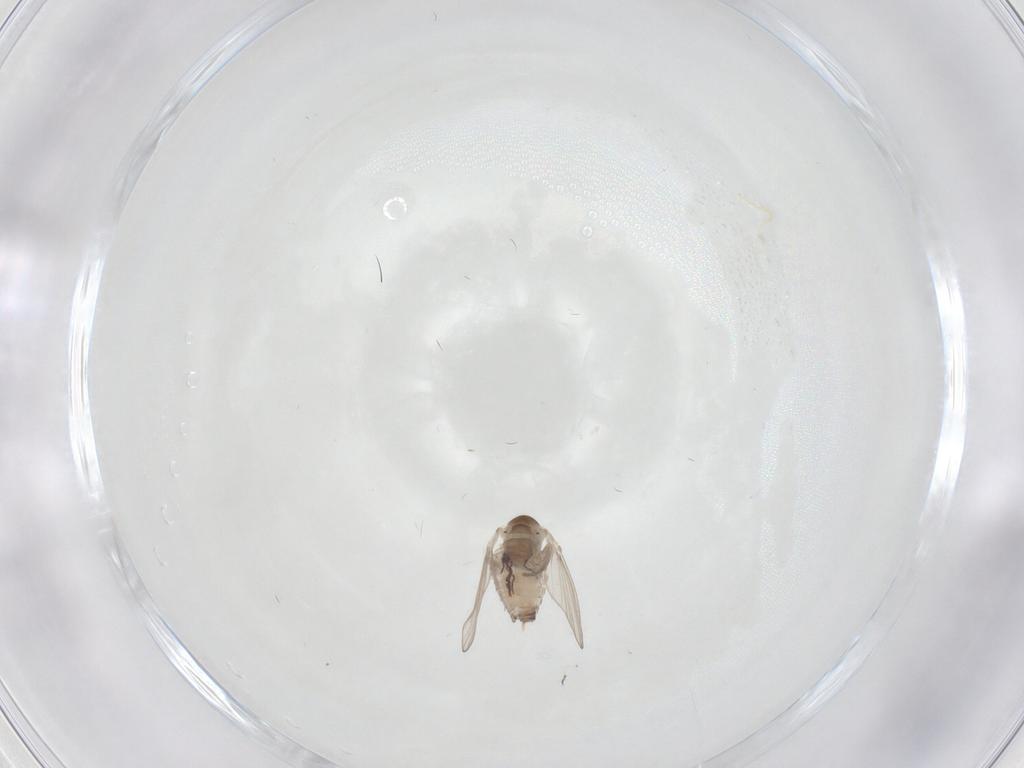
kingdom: Animalia
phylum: Arthropoda
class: Insecta
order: Diptera
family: Psychodidae
